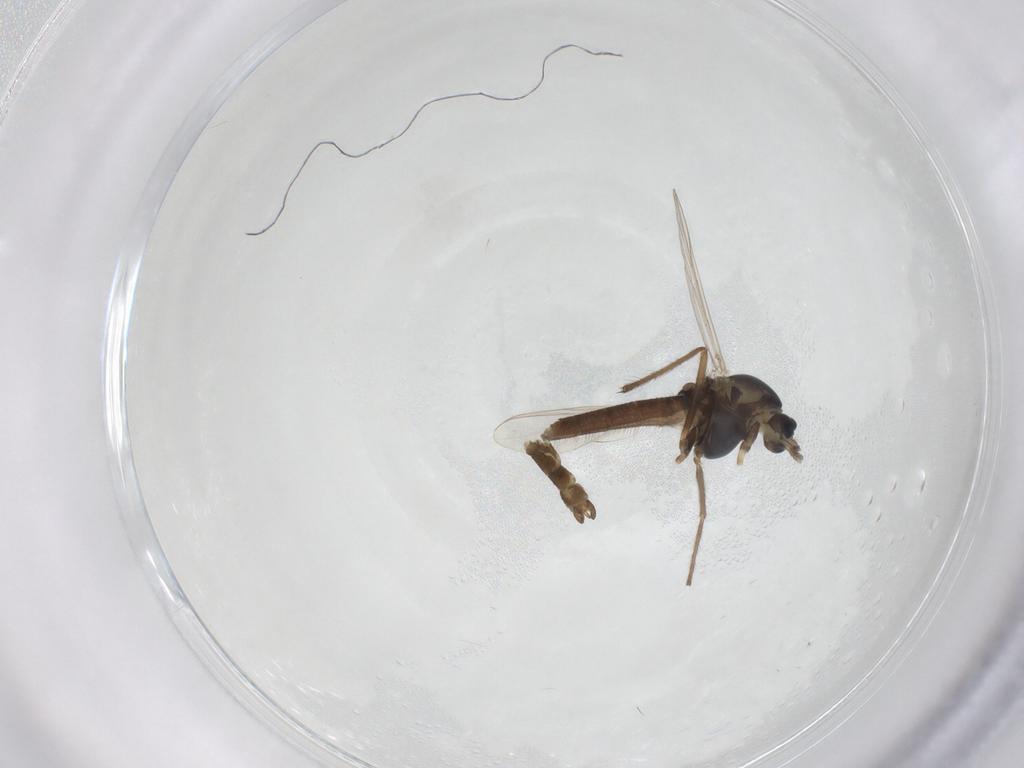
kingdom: Animalia
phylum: Arthropoda
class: Insecta
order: Diptera
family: Chironomidae
